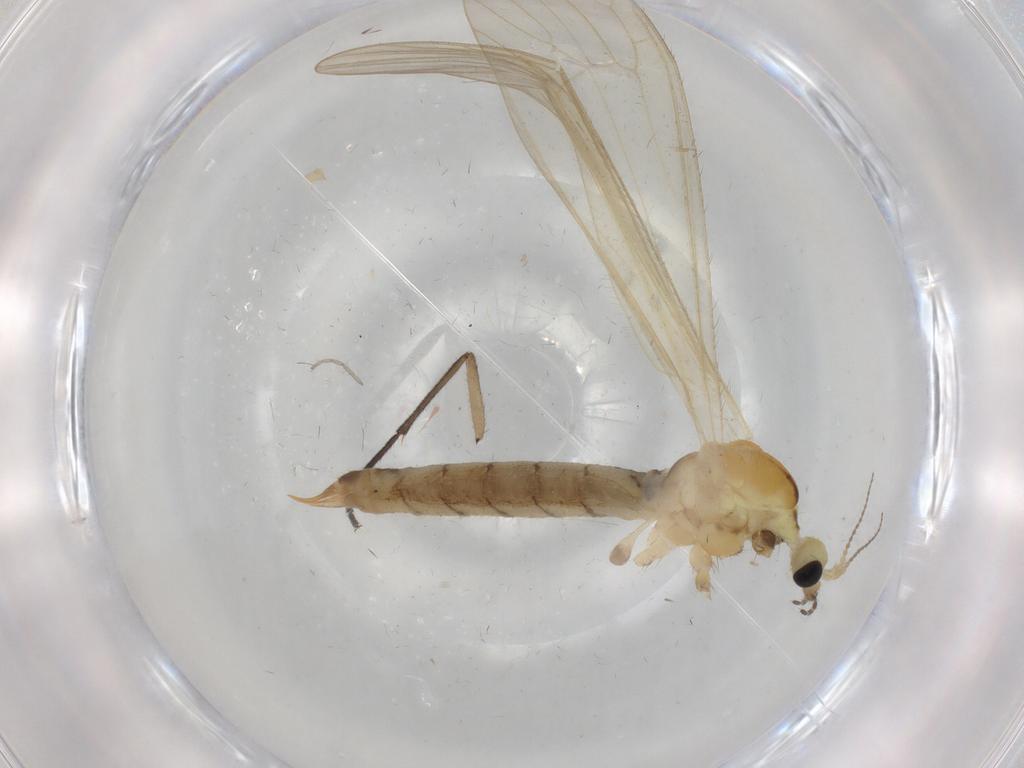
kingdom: Animalia
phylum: Arthropoda
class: Insecta
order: Diptera
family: Limoniidae
